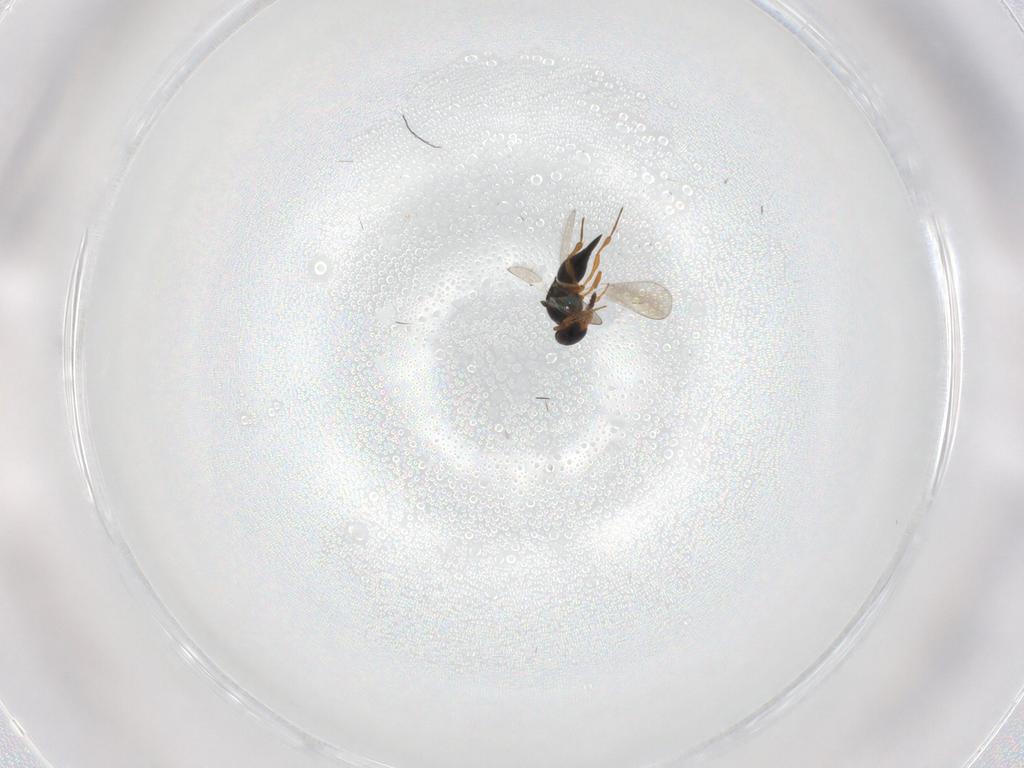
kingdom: Animalia
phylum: Arthropoda
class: Insecta
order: Hymenoptera
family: Platygastridae
